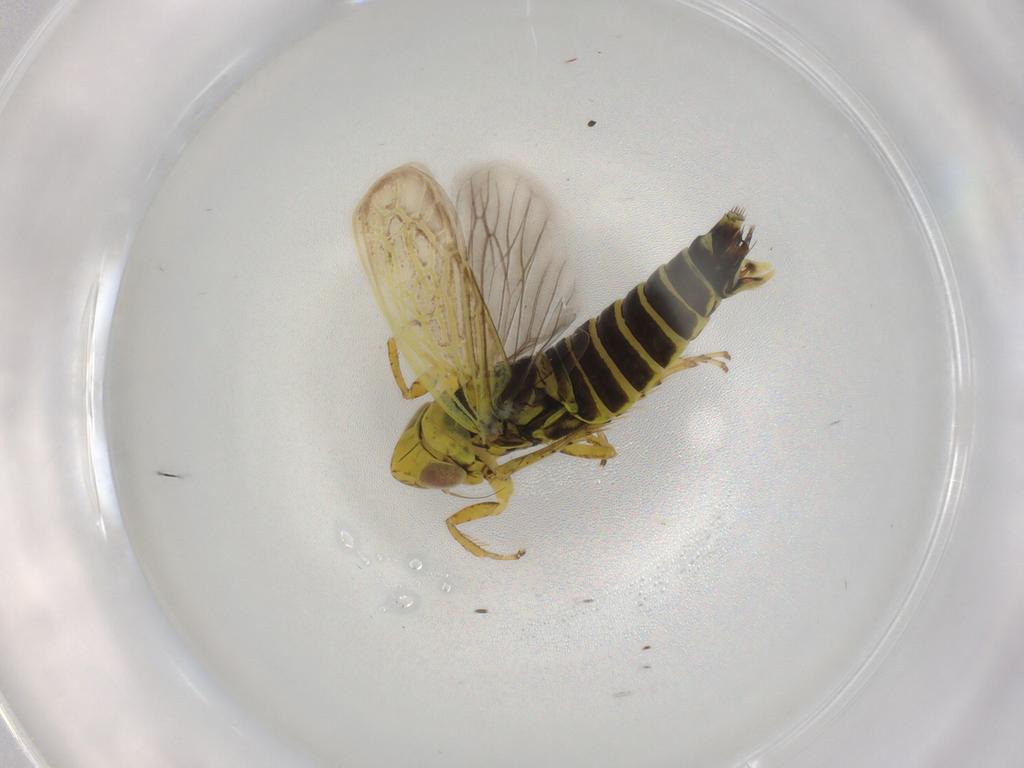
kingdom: Animalia
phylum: Arthropoda
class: Insecta
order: Hemiptera
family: Cicadellidae
